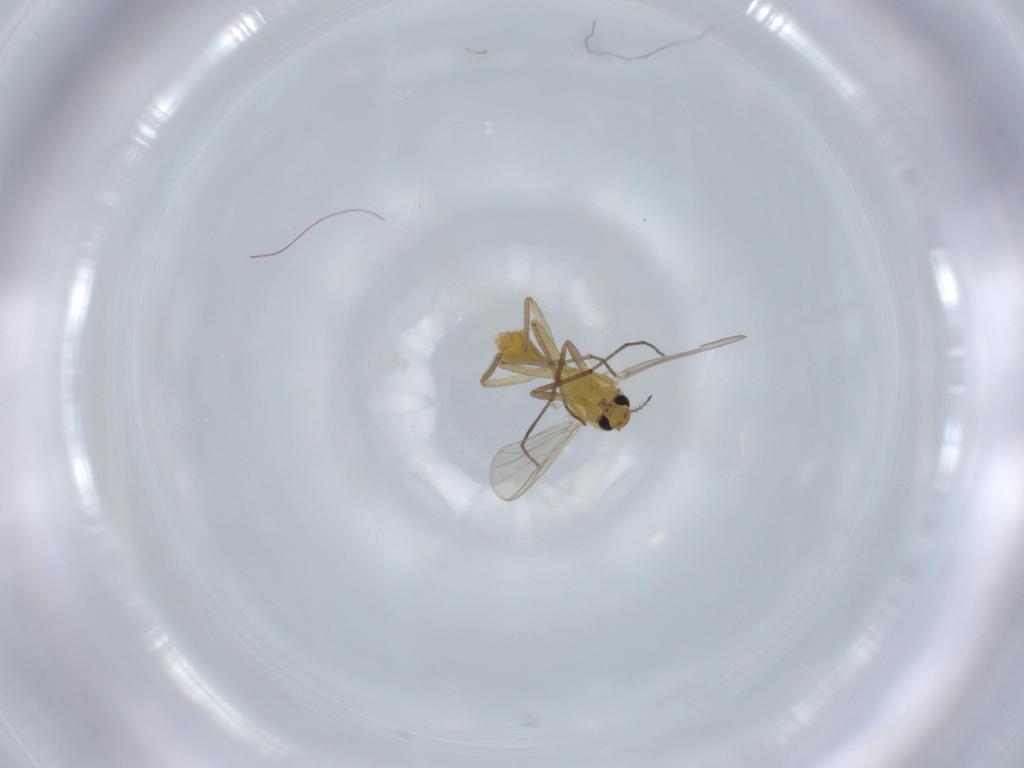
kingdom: Animalia
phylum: Arthropoda
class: Insecta
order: Diptera
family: Chironomidae
